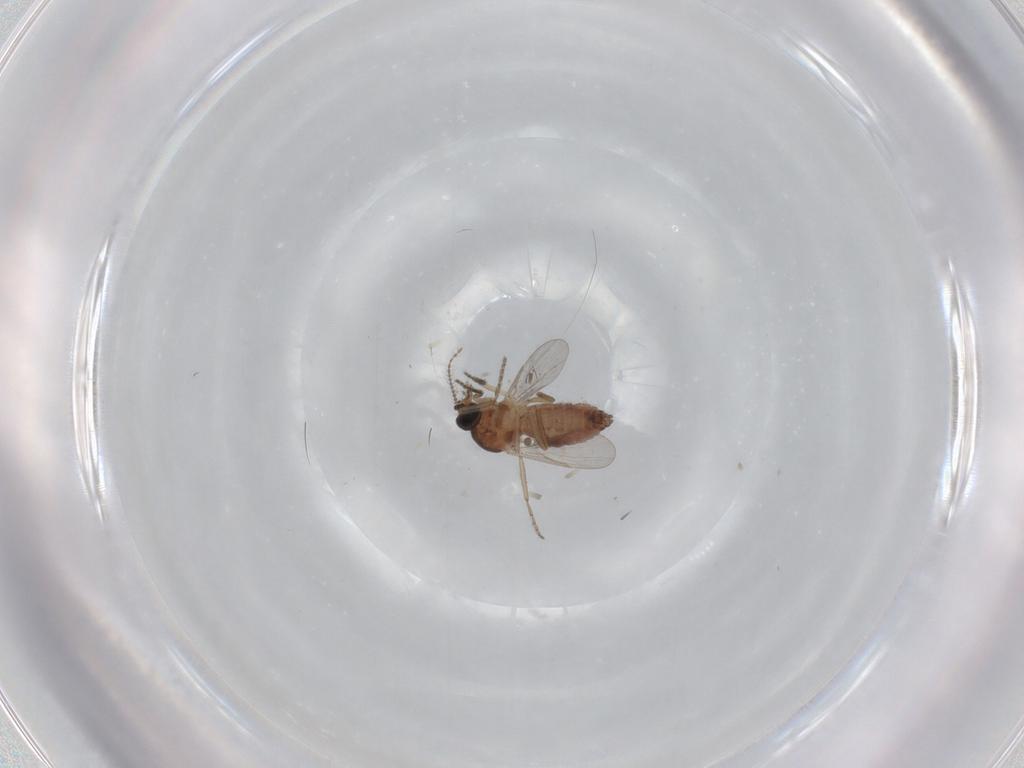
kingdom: Animalia
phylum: Arthropoda
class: Insecta
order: Diptera
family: Ceratopogonidae
